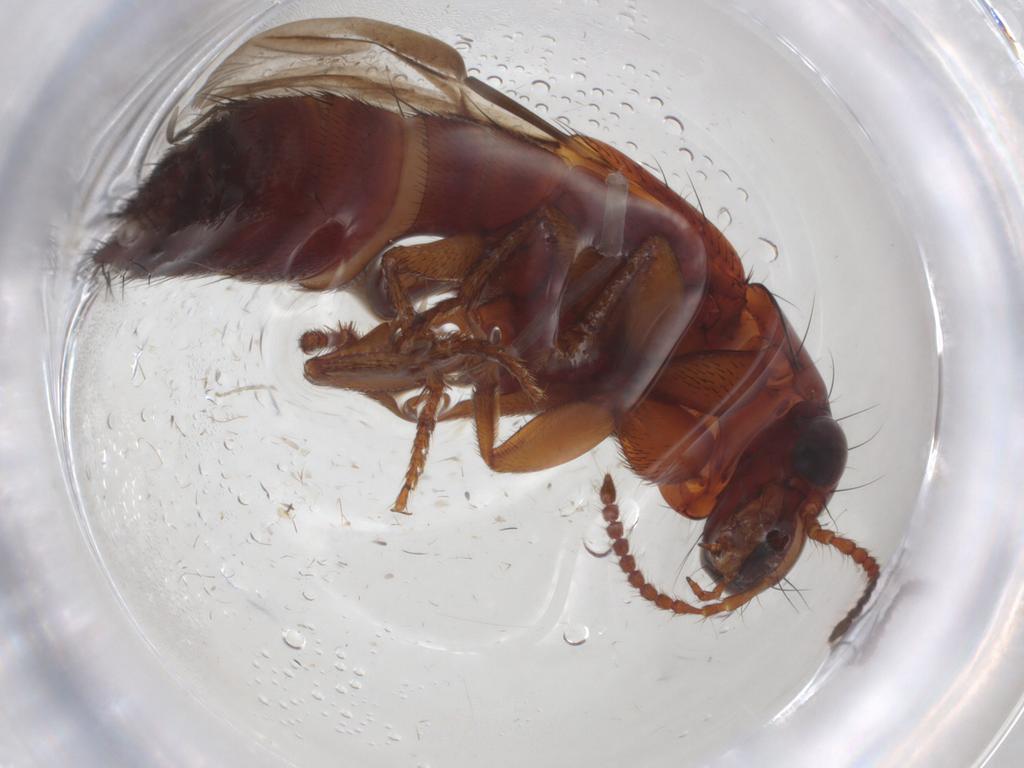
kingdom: Animalia
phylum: Arthropoda
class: Insecta
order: Coleoptera
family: Staphylinidae
